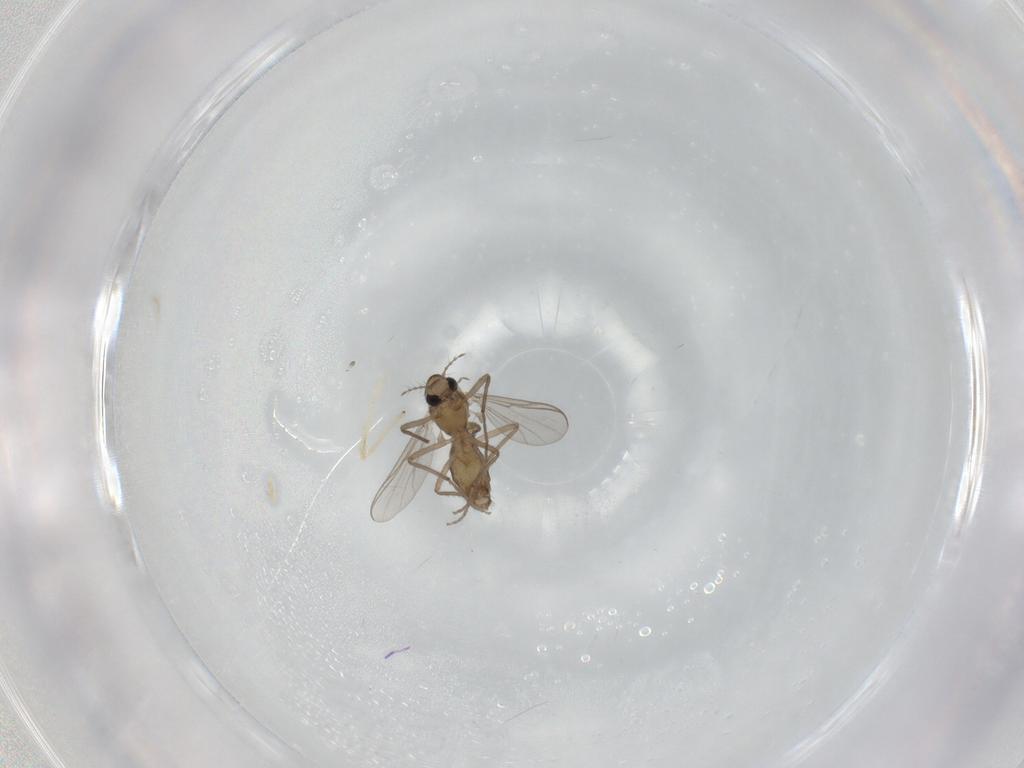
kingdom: Animalia
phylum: Arthropoda
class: Insecta
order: Diptera
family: Chironomidae
